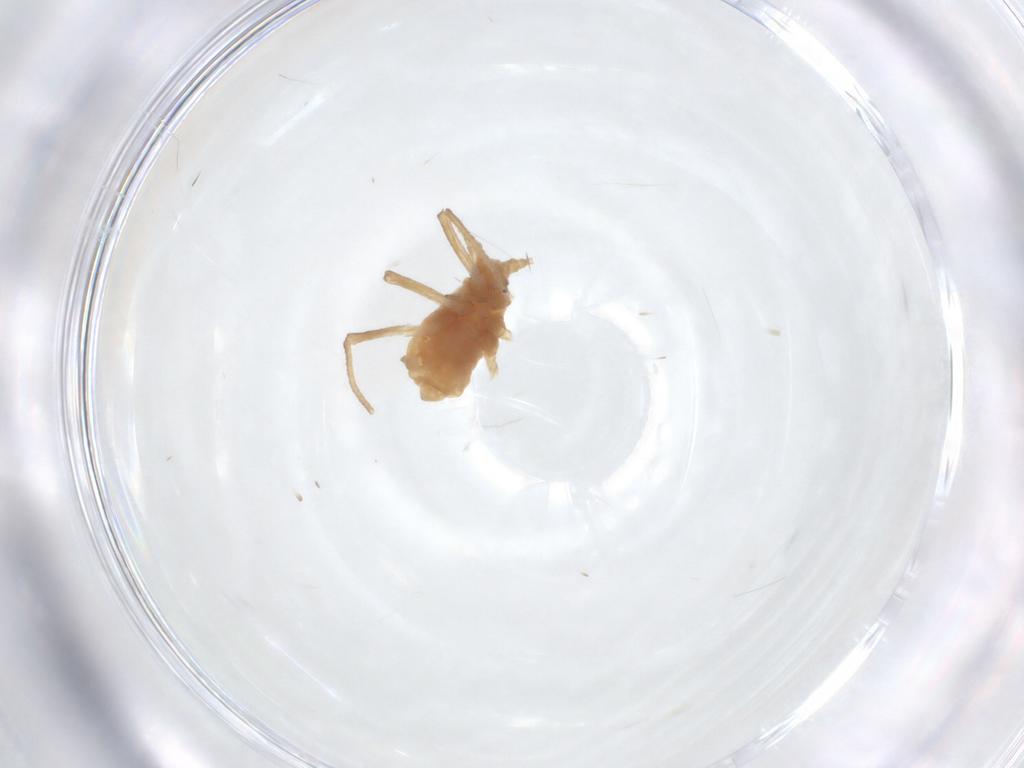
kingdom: Animalia
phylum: Arthropoda
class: Insecta
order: Hemiptera
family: Aphididae
